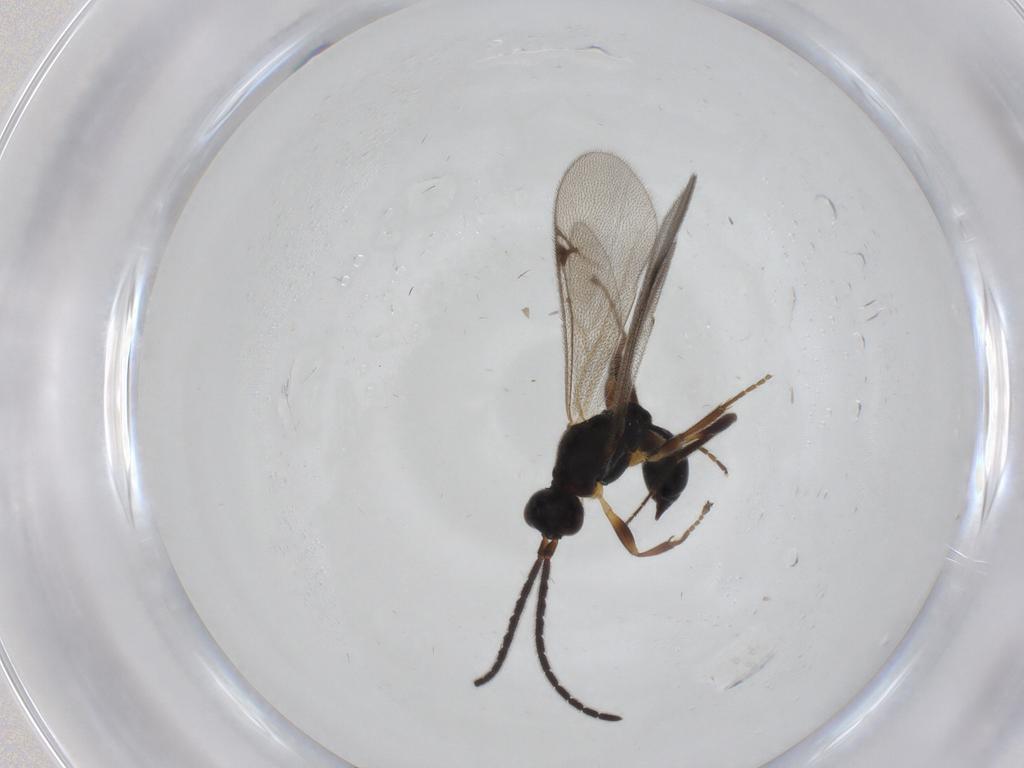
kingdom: Animalia
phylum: Arthropoda
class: Insecta
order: Hymenoptera
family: Proctotrupidae
